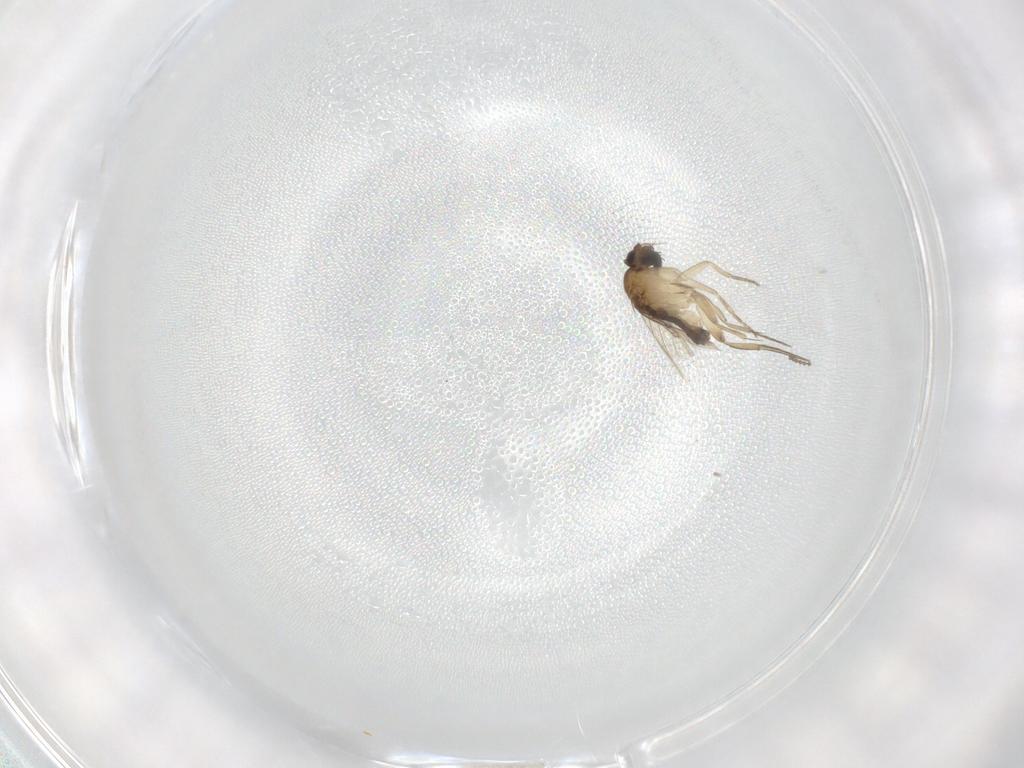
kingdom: Animalia
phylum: Arthropoda
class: Insecta
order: Diptera
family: Phoridae
